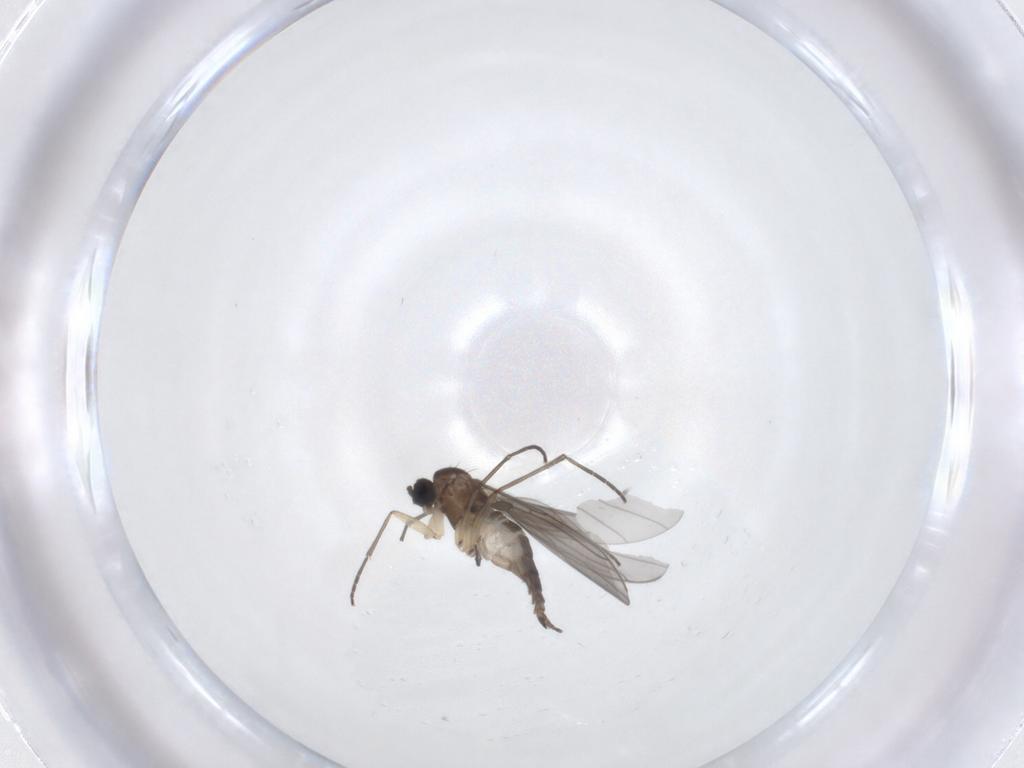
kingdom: Animalia
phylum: Arthropoda
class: Insecta
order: Diptera
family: Sciaridae
